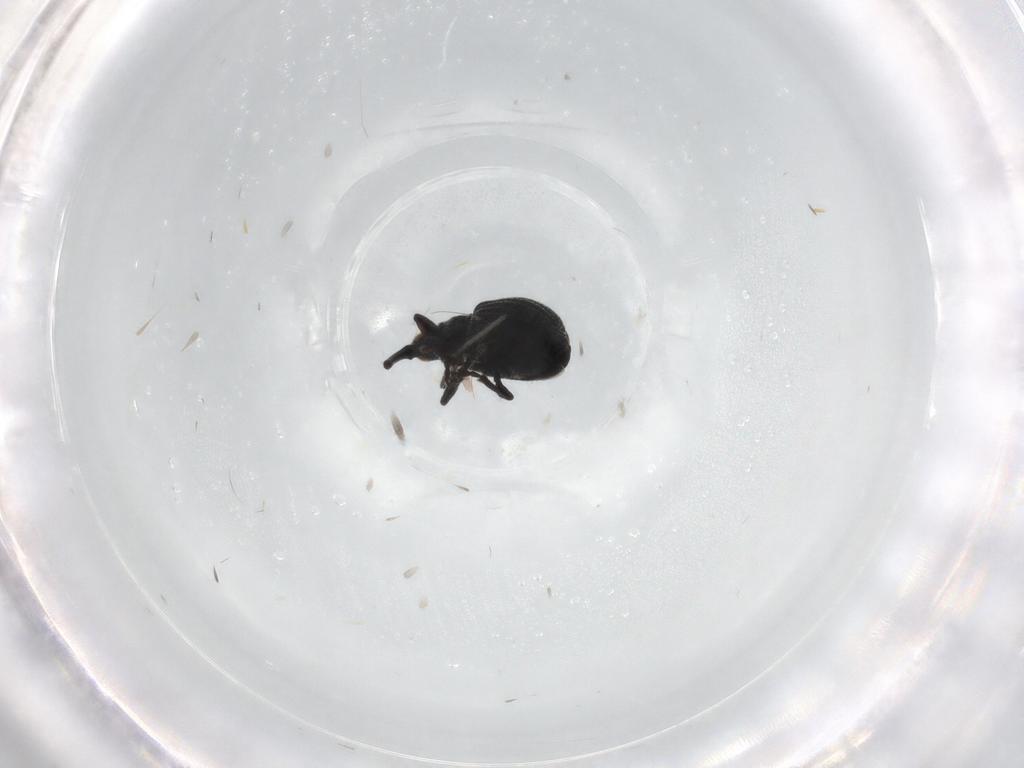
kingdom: Animalia
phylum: Arthropoda
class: Insecta
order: Coleoptera
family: Brentidae
